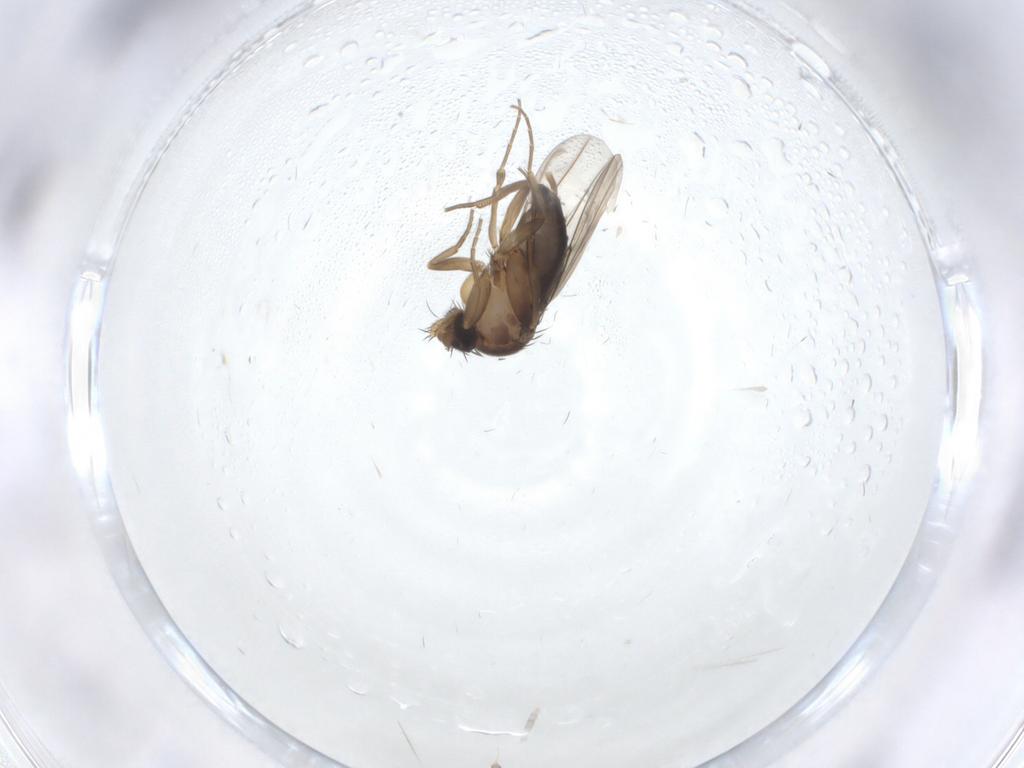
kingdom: Animalia
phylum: Arthropoda
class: Insecta
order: Diptera
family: Phoridae
